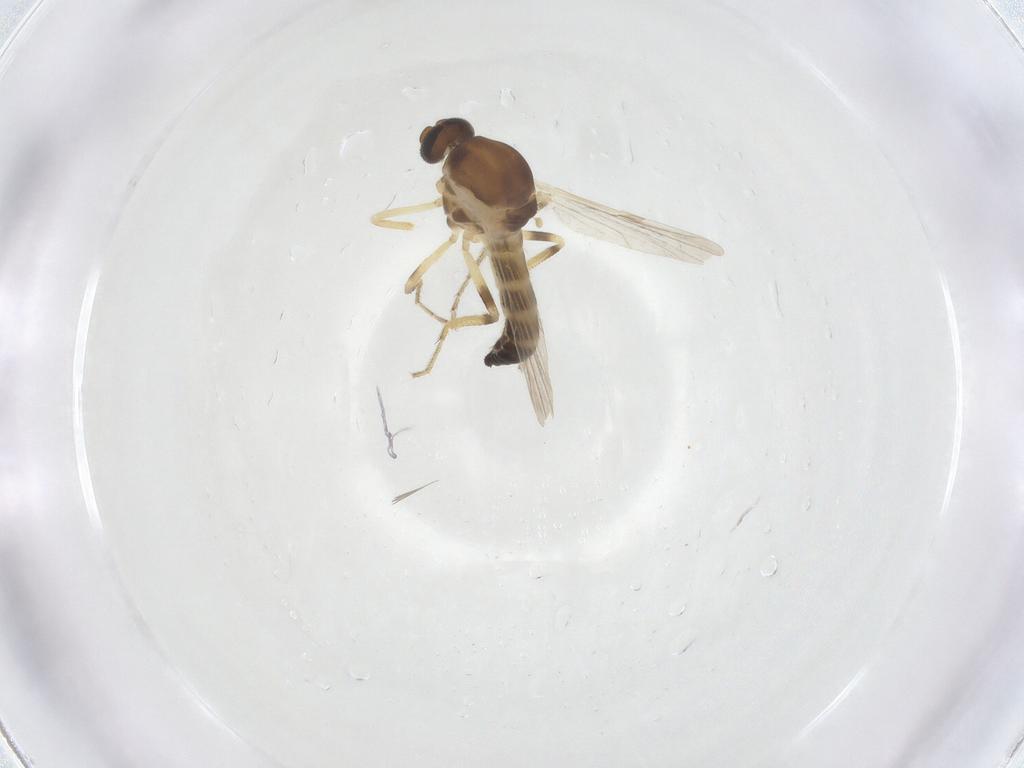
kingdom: Animalia
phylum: Arthropoda
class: Insecta
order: Diptera
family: Ceratopogonidae
